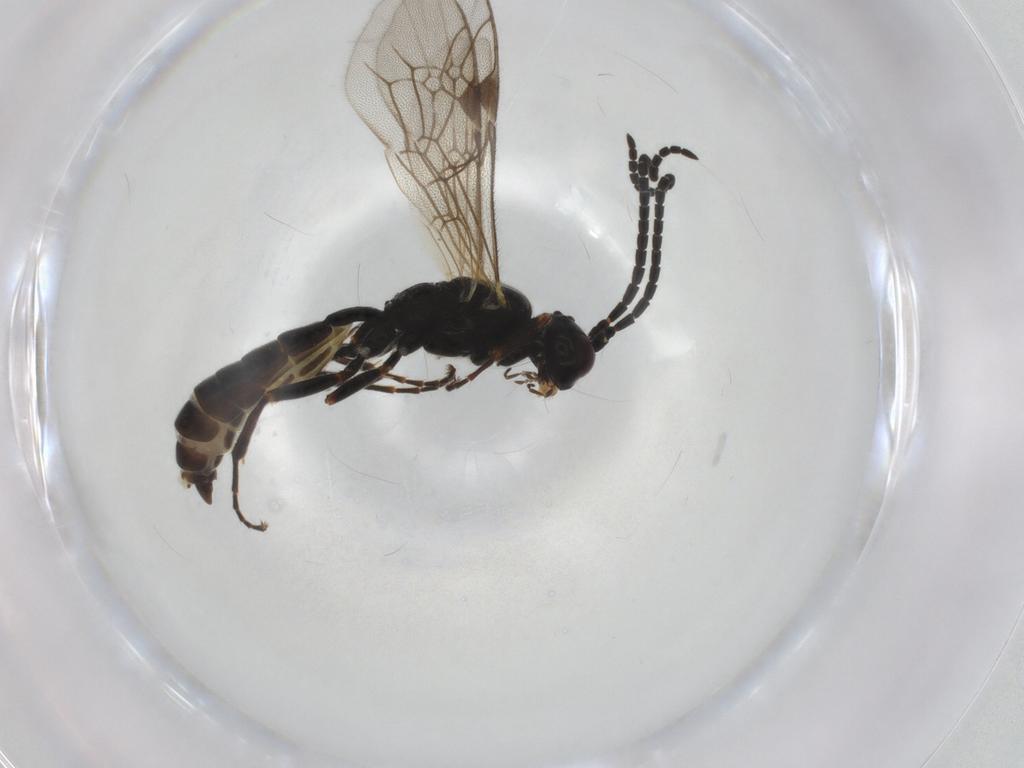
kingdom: Animalia
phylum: Arthropoda
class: Insecta
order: Hymenoptera
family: Ichneumonidae
